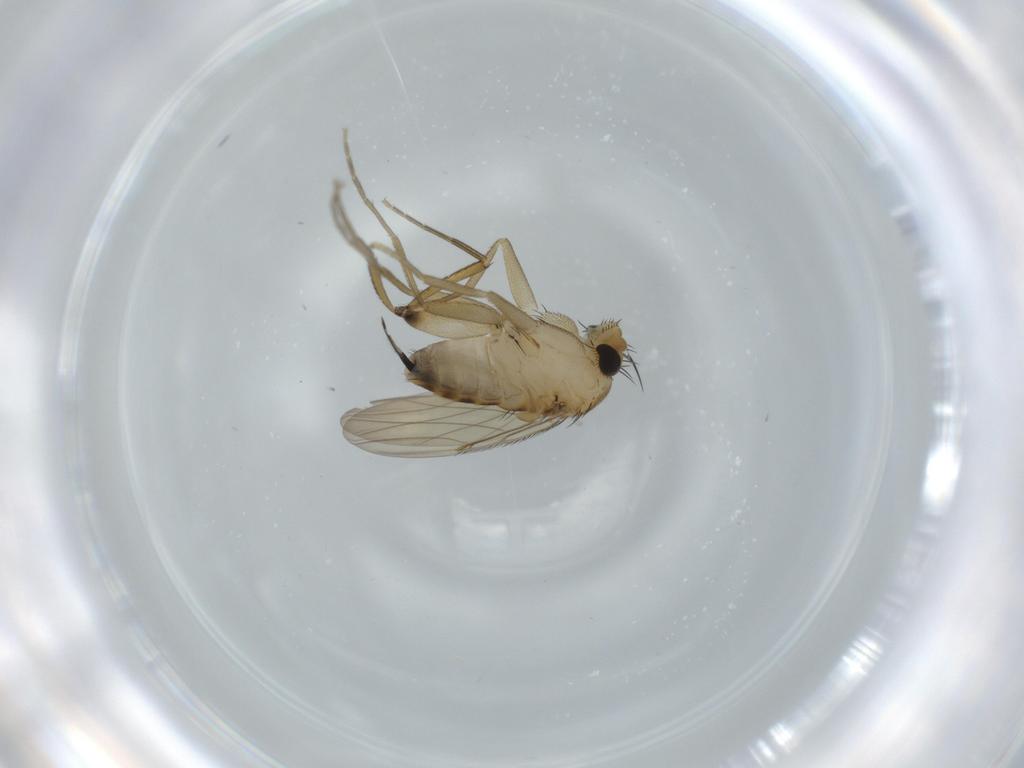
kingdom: Animalia
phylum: Arthropoda
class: Insecta
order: Diptera
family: Phoridae
